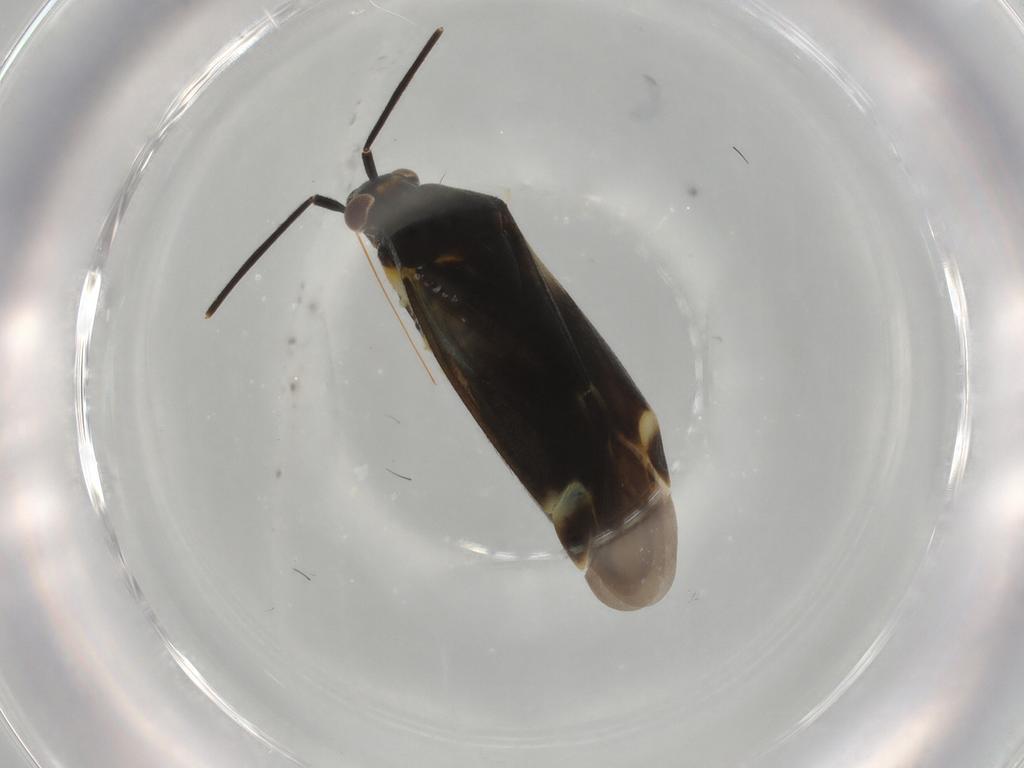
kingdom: Animalia
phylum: Arthropoda
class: Insecta
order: Hemiptera
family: Miridae
